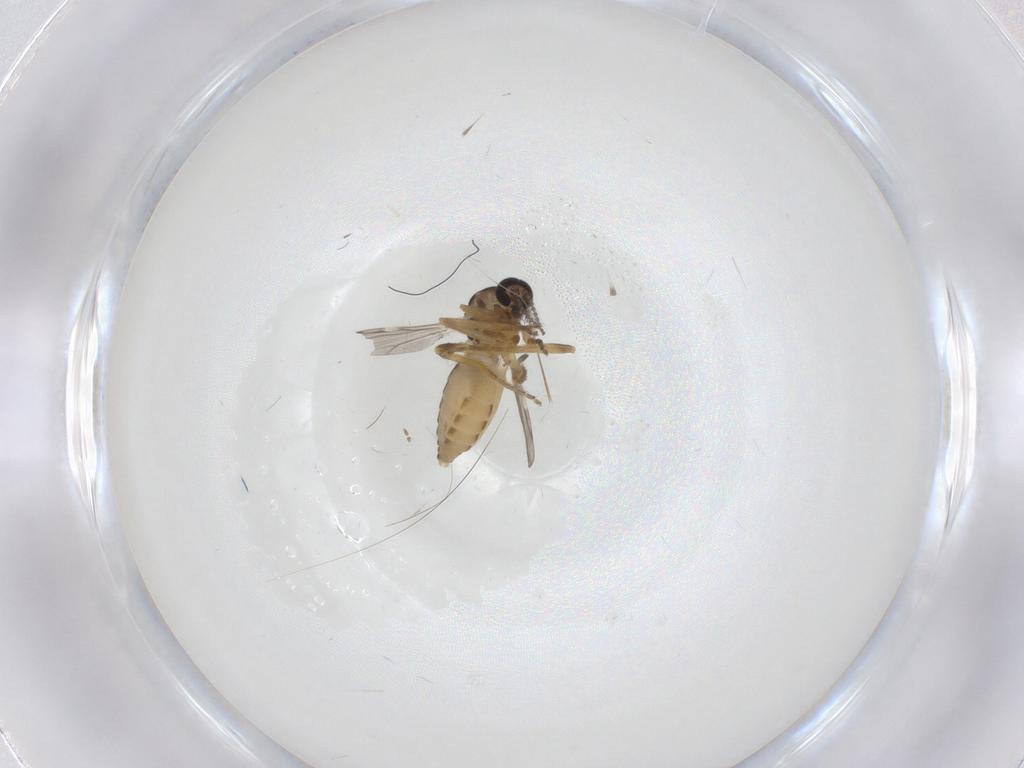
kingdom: Animalia
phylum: Arthropoda
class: Insecta
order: Diptera
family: Ceratopogonidae
